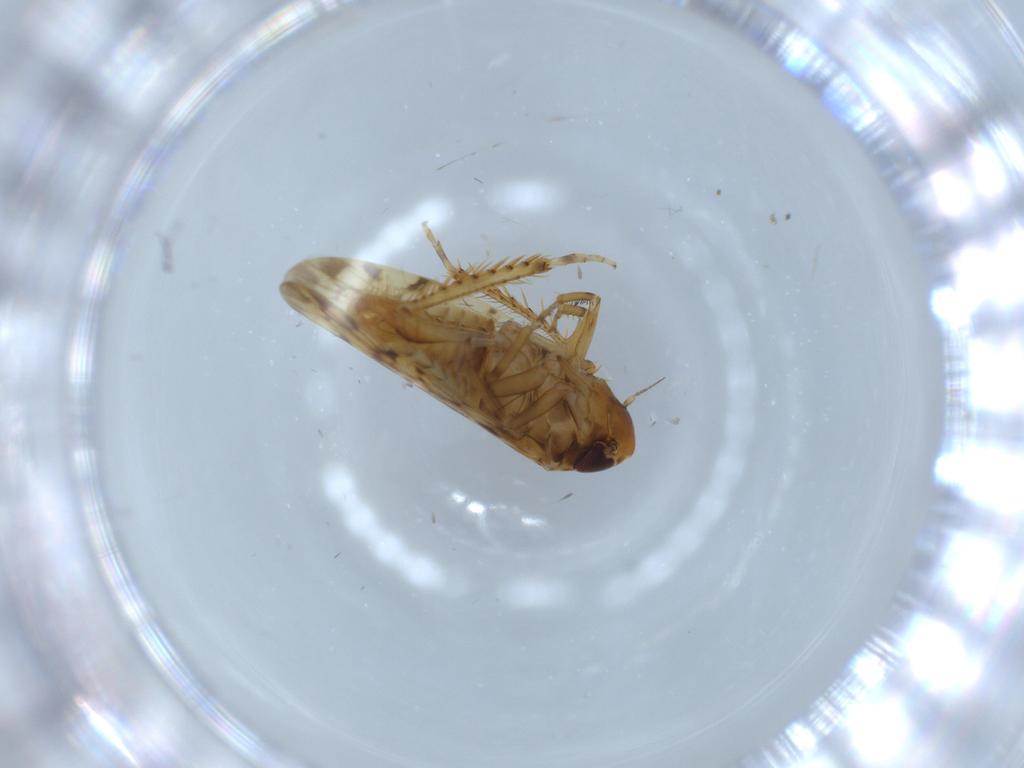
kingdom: Animalia
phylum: Arthropoda
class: Insecta
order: Hemiptera
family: Cicadellidae
